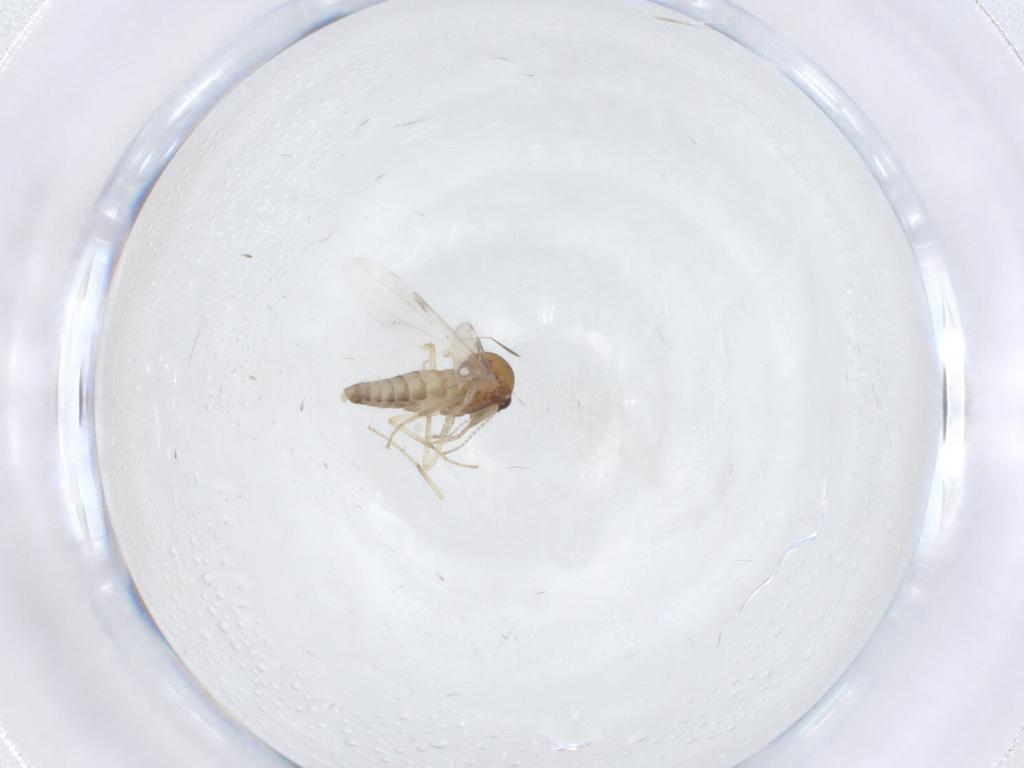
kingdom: Animalia
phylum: Arthropoda
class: Insecta
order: Diptera
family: Ceratopogonidae
